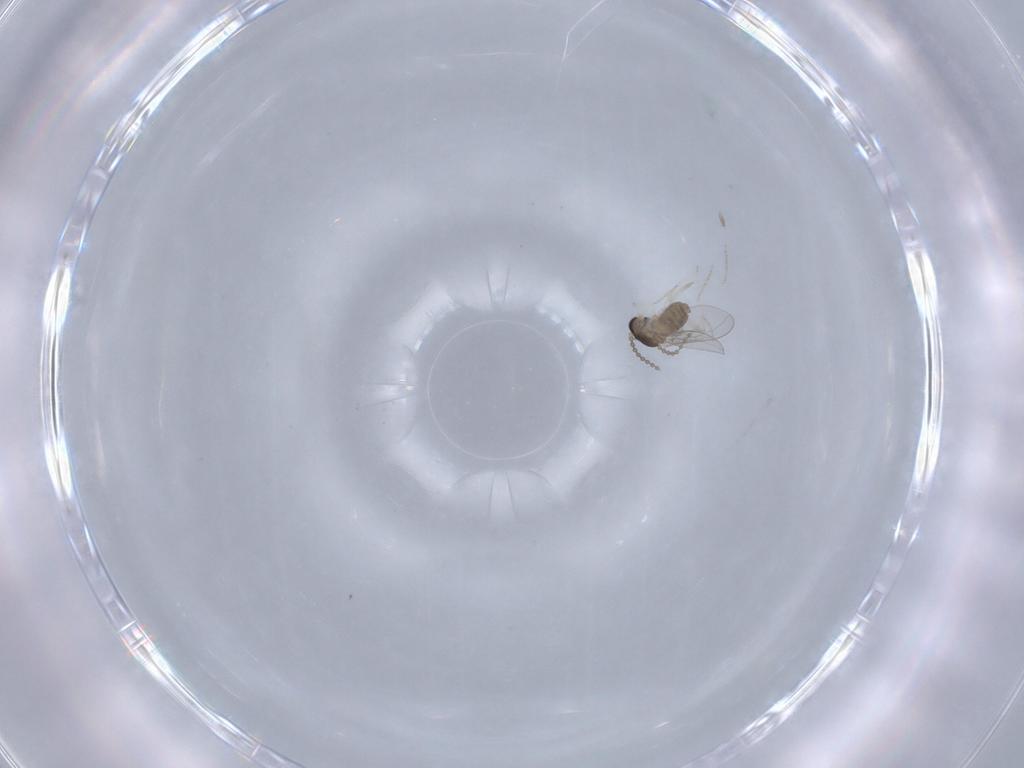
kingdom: Animalia
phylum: Arthropoda
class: Insecta
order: Diptera
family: Cecidomyiidae
